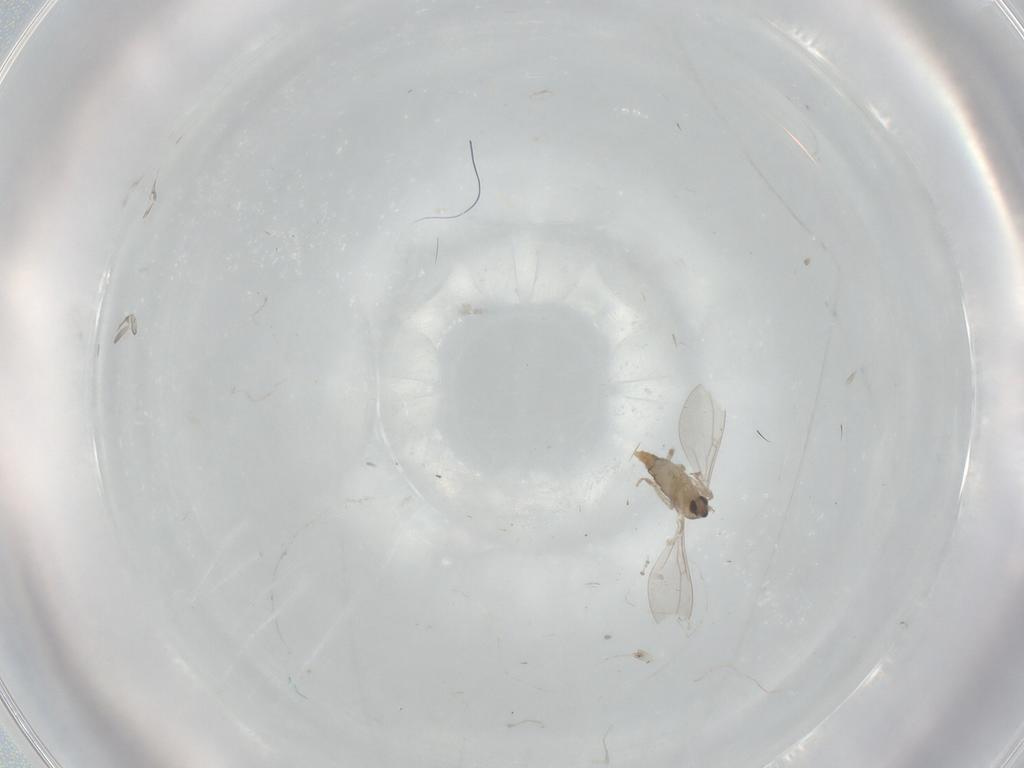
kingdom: Animalia
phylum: Arthropoda
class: Insecta
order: Diptera
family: Cecidomyiidae
